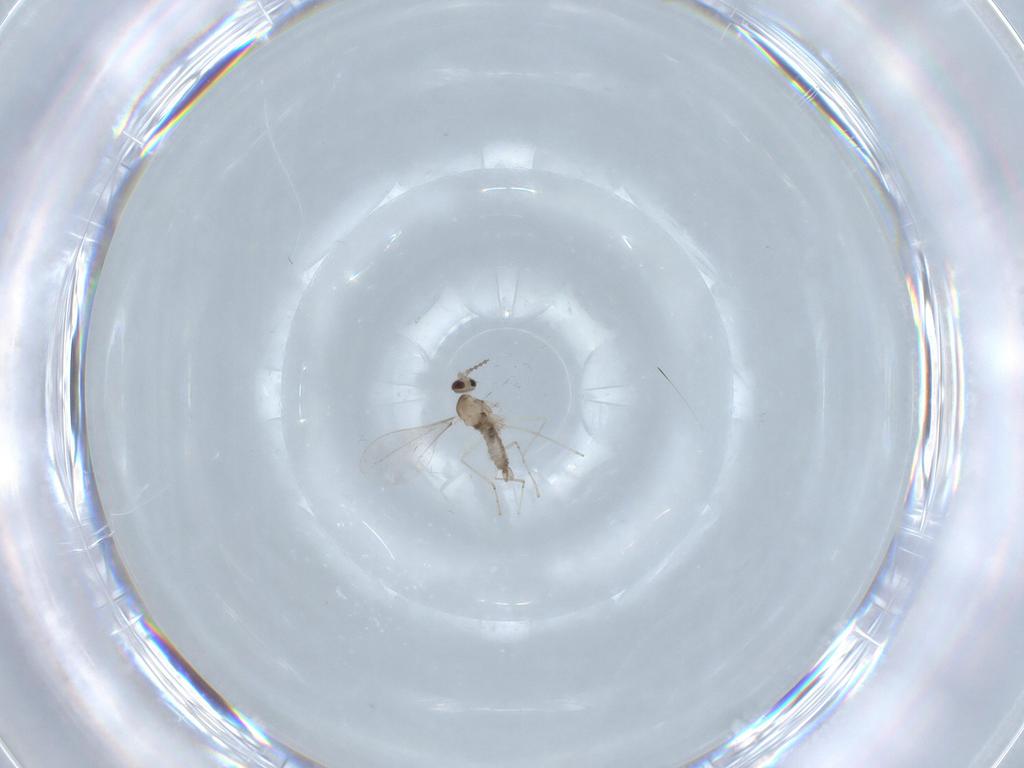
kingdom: Animalia
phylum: Arthropoda
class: Insecta
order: Diptera
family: Cecidomyiidae
